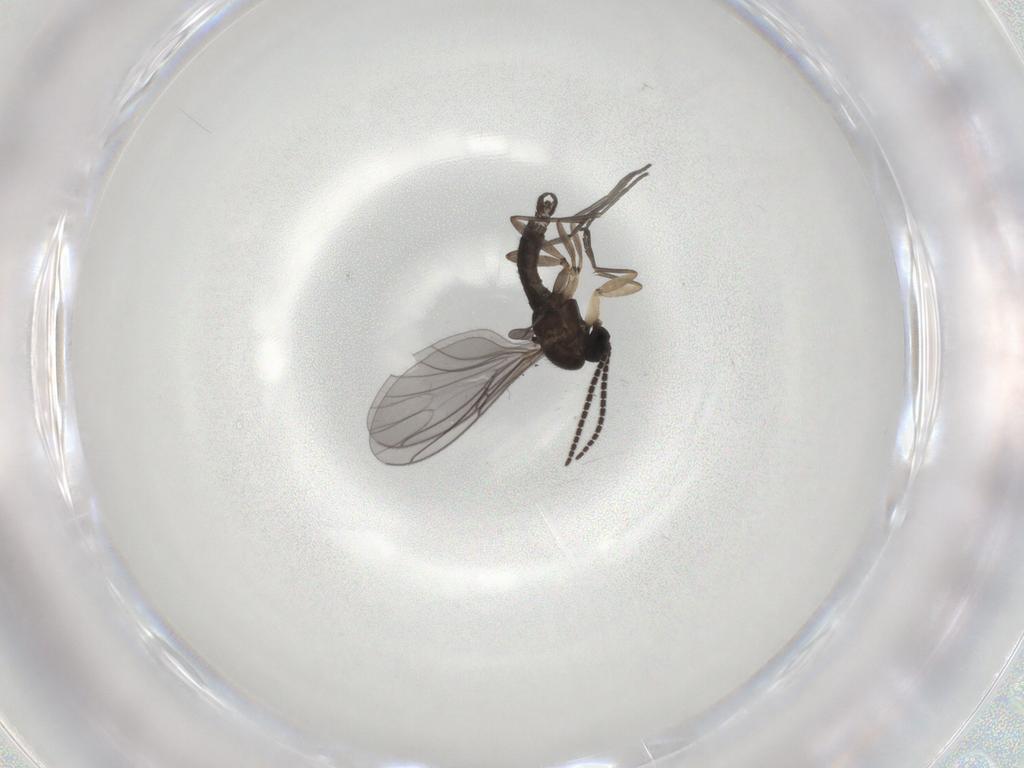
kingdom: Animalia
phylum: Arthropoda
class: Insecta
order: Diptera
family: Sciaridae
